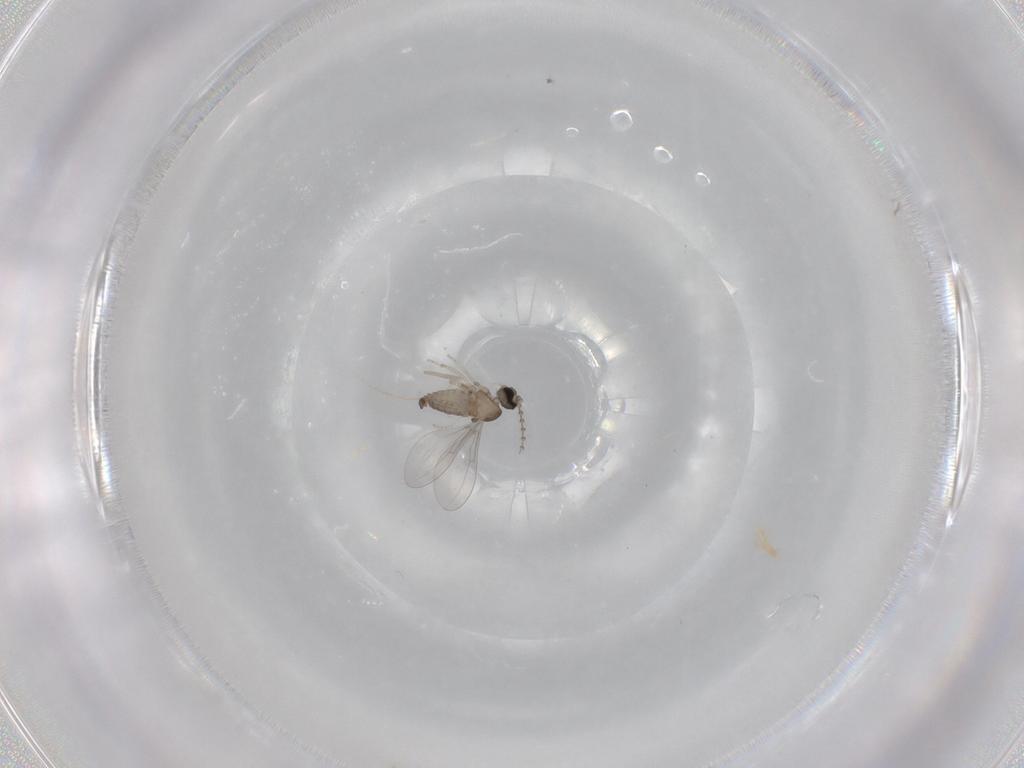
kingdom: Animalia
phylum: Arthropoda
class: Insecta
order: Diptera
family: Cecidomyiidae
